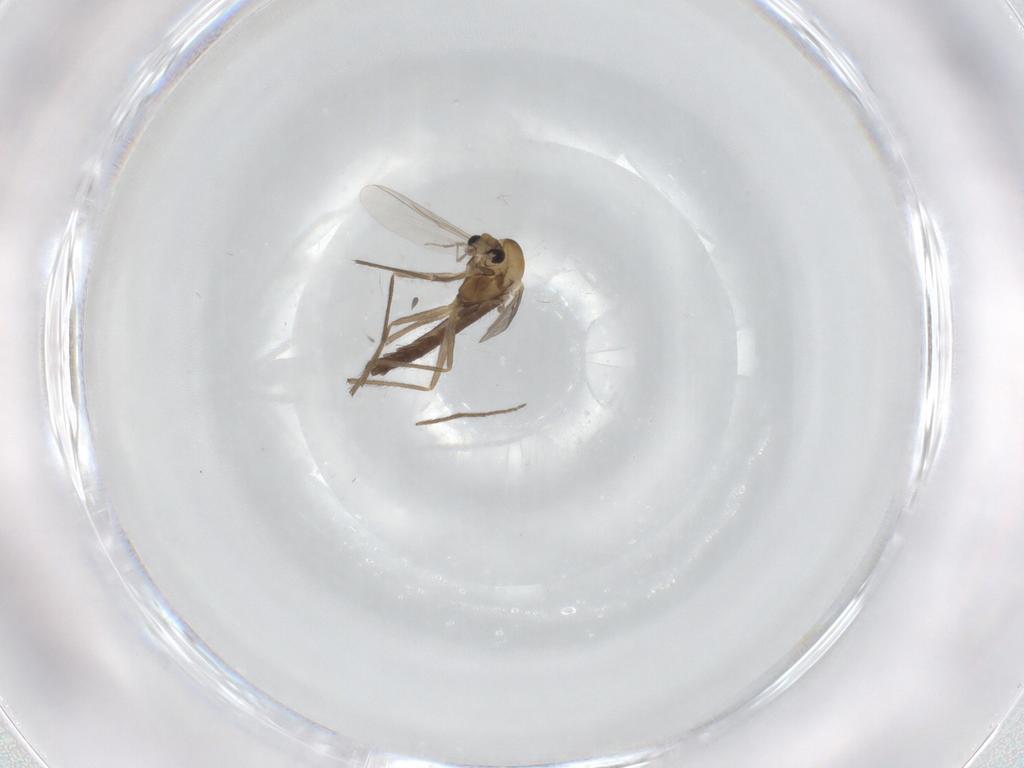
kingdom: Animalia
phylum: Arthropoda
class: Insecta
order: Diptera
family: Chironomidae
